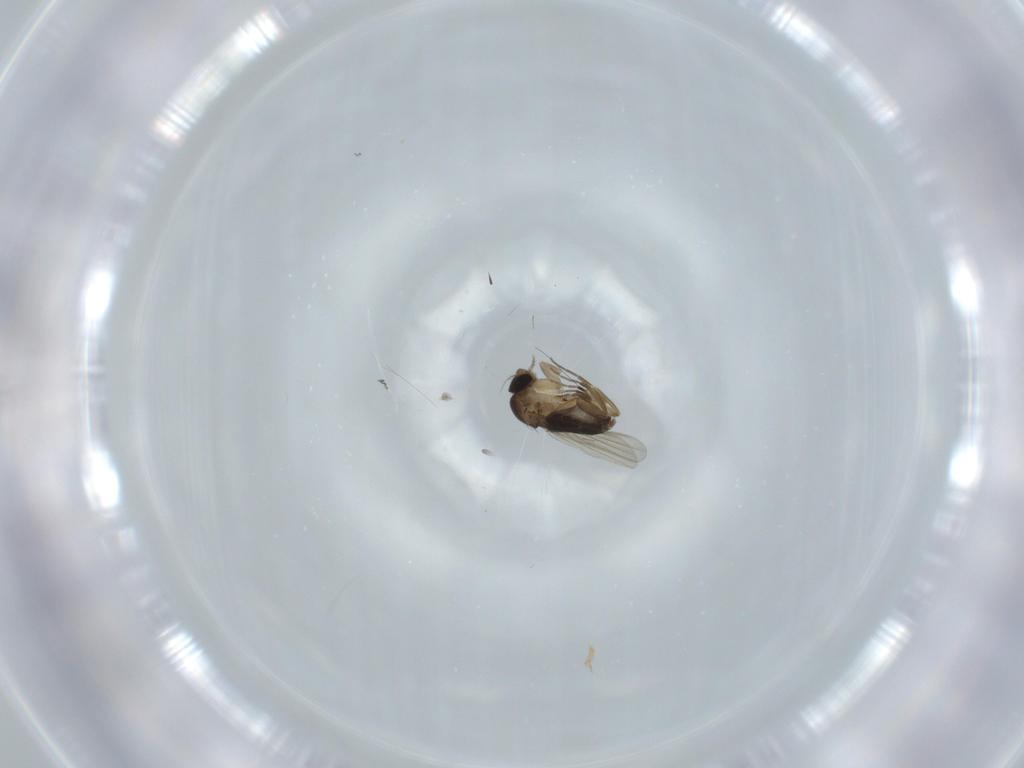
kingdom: Animalia
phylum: Arthropoda
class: Insecta
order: Diptera
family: Phoridae
